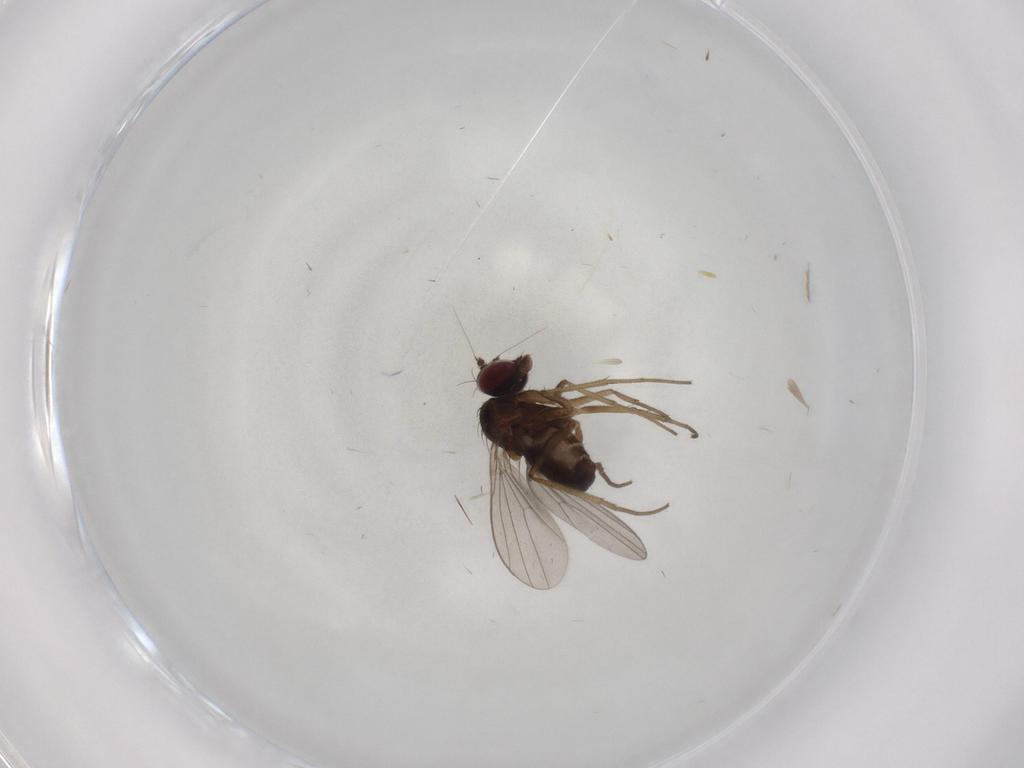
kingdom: Animalia
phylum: Arthropoda
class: Insecta
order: Diptera
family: Dolichopodidae
